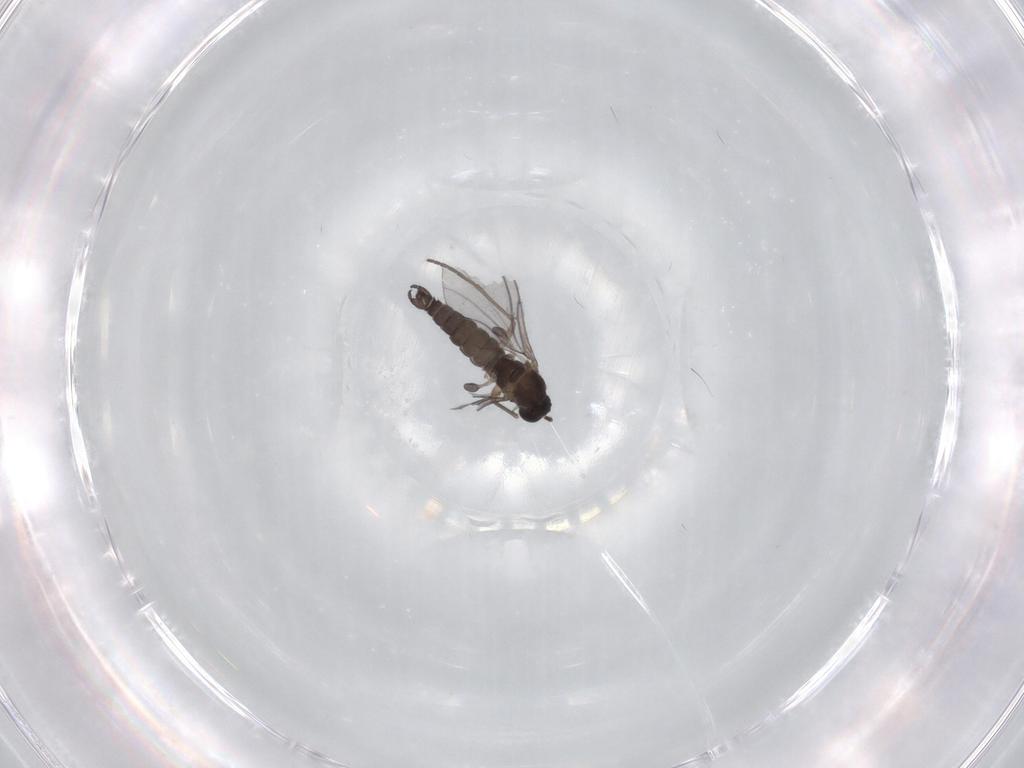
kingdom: Animalia
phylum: Arthropoda
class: Insecta
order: Diptera
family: Sciaridae
